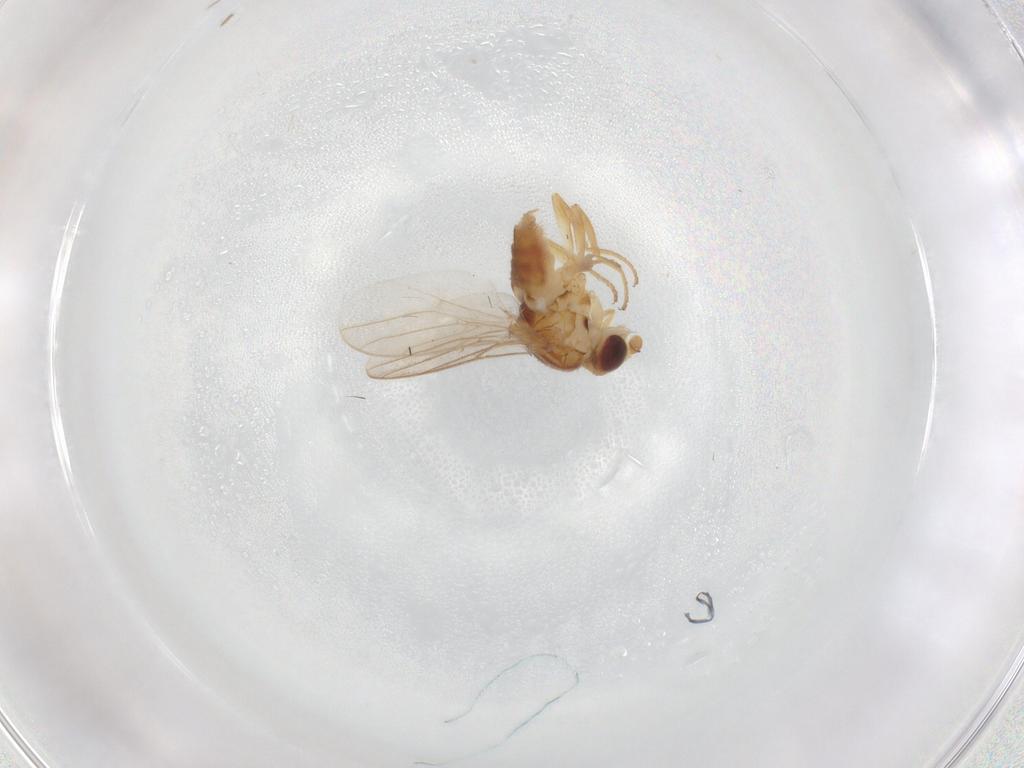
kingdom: Animalia
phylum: Arthropoda
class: Insecta
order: Diptera
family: Chloropidae
